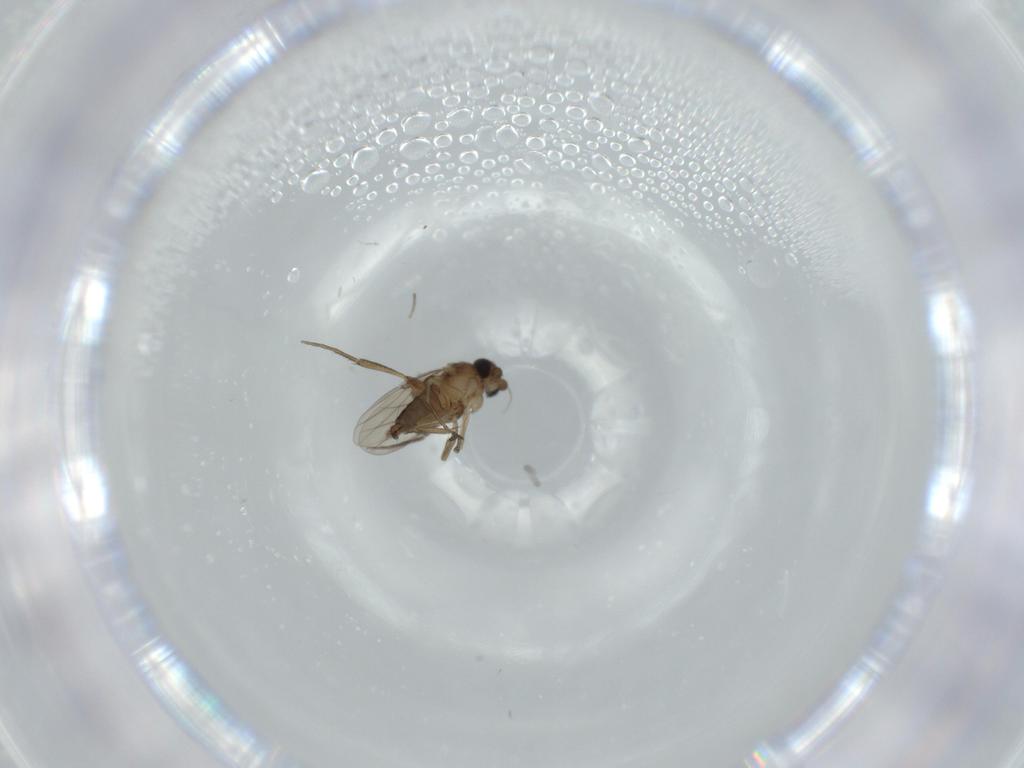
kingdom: Animalia
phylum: Arthropoda
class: Insecta
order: Diptera
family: Phoridae
